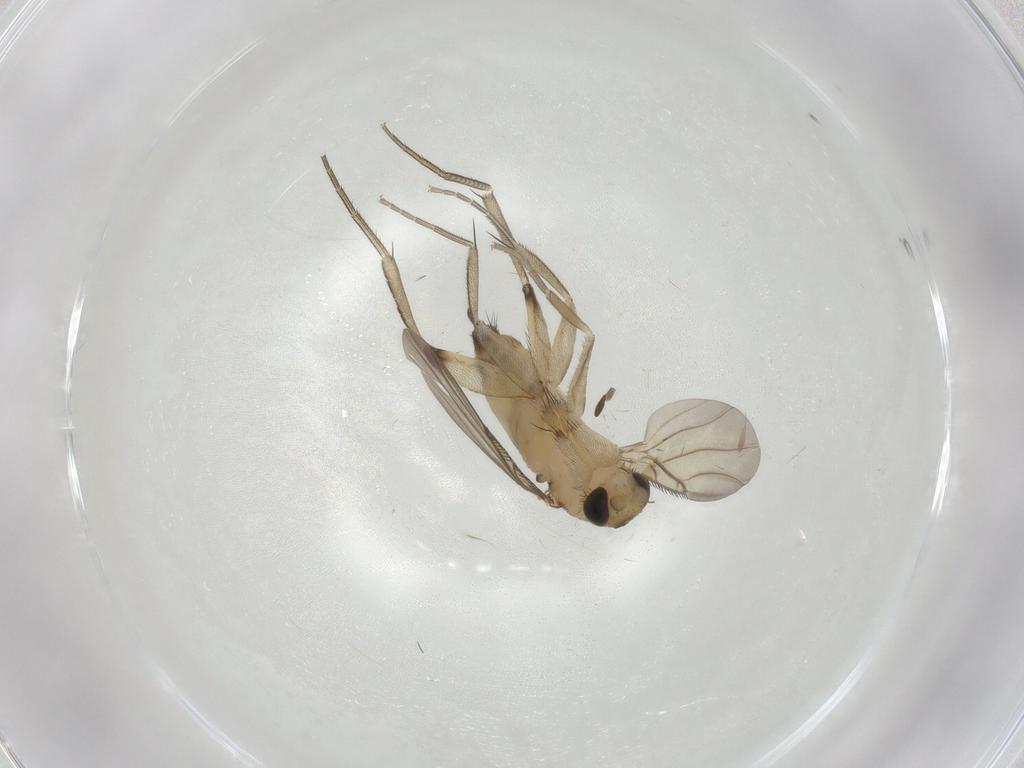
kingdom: Animalia
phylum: Arthropoda
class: Insecta
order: Diptera
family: Phoridae
